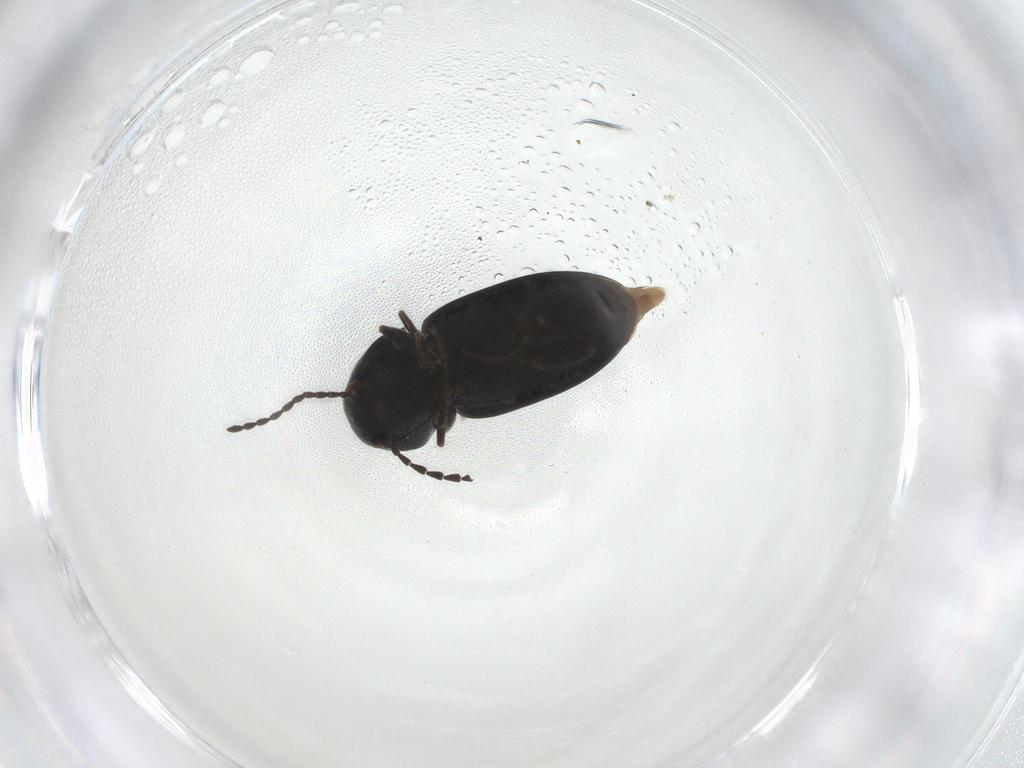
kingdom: Animalia
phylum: Arthropoda
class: Insecta
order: Coleoptera
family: Elateridae
